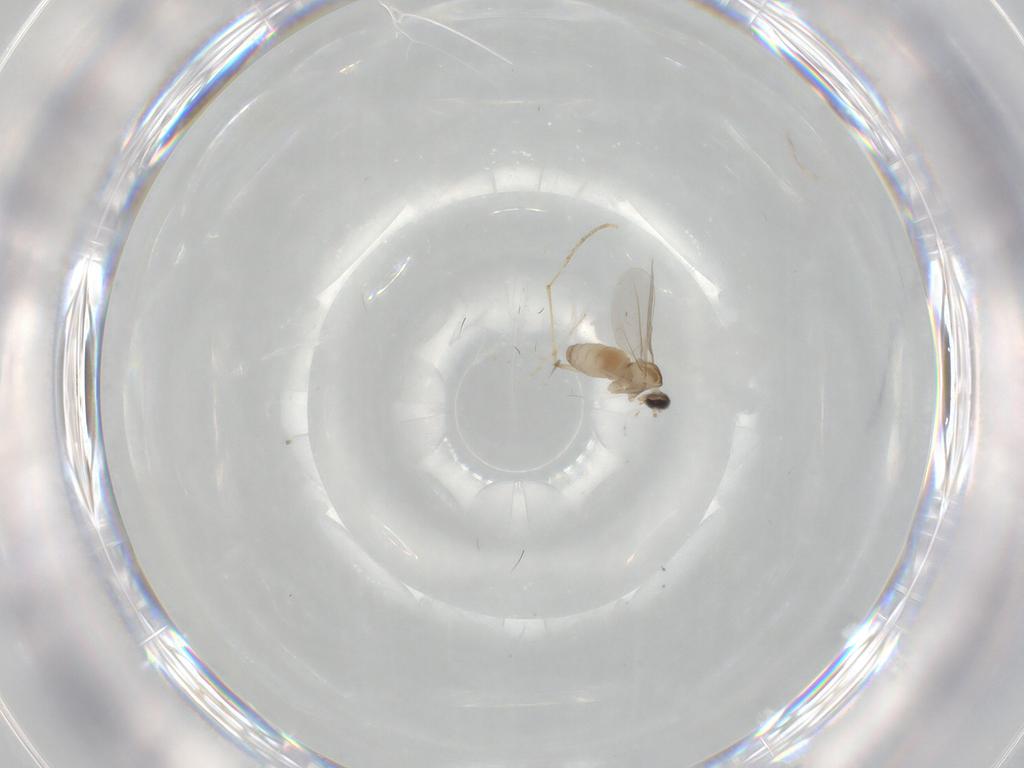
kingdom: Animalia
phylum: Arthropoda
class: Insecta
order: Diptera
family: Cecidomyiidae
